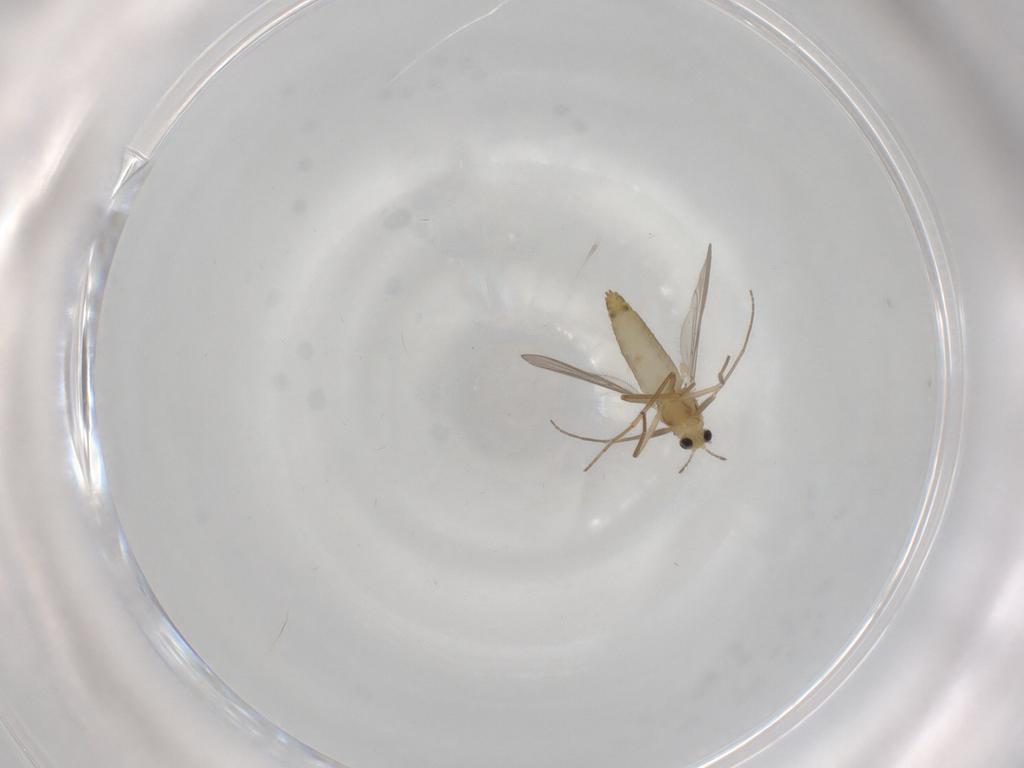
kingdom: Animalia
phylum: Arthropoda
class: Insecta
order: Diptera
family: Chironomidae
